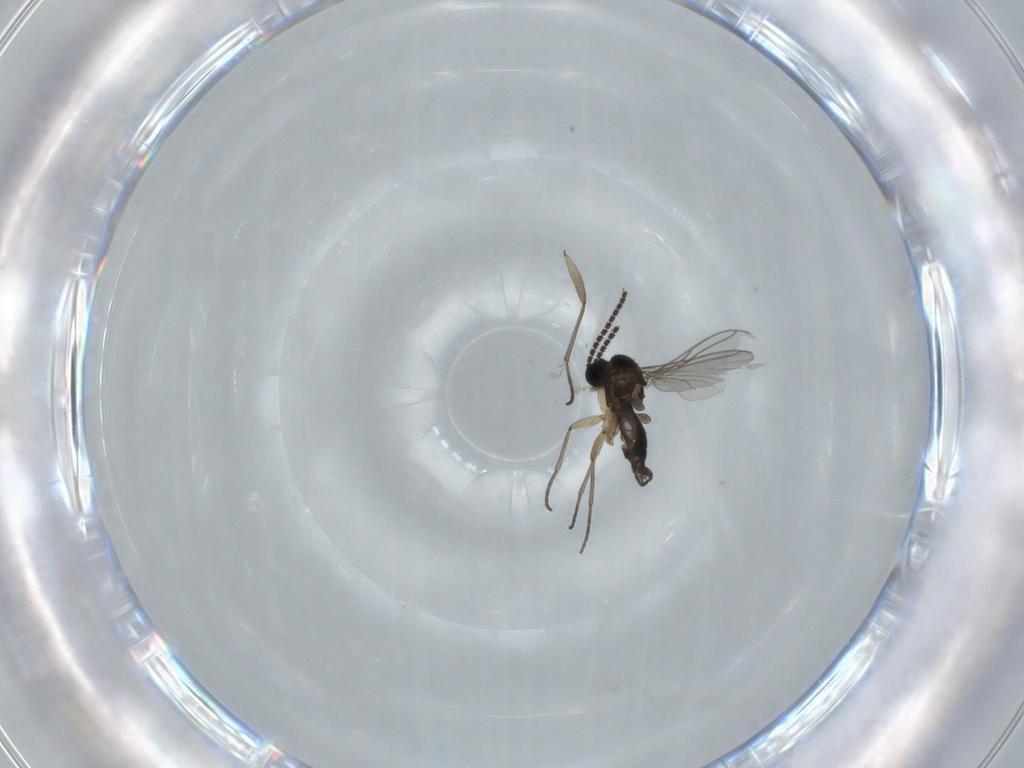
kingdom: Animalia
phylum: Arthropoda
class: Insecta
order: Diptera
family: Sciaridae
